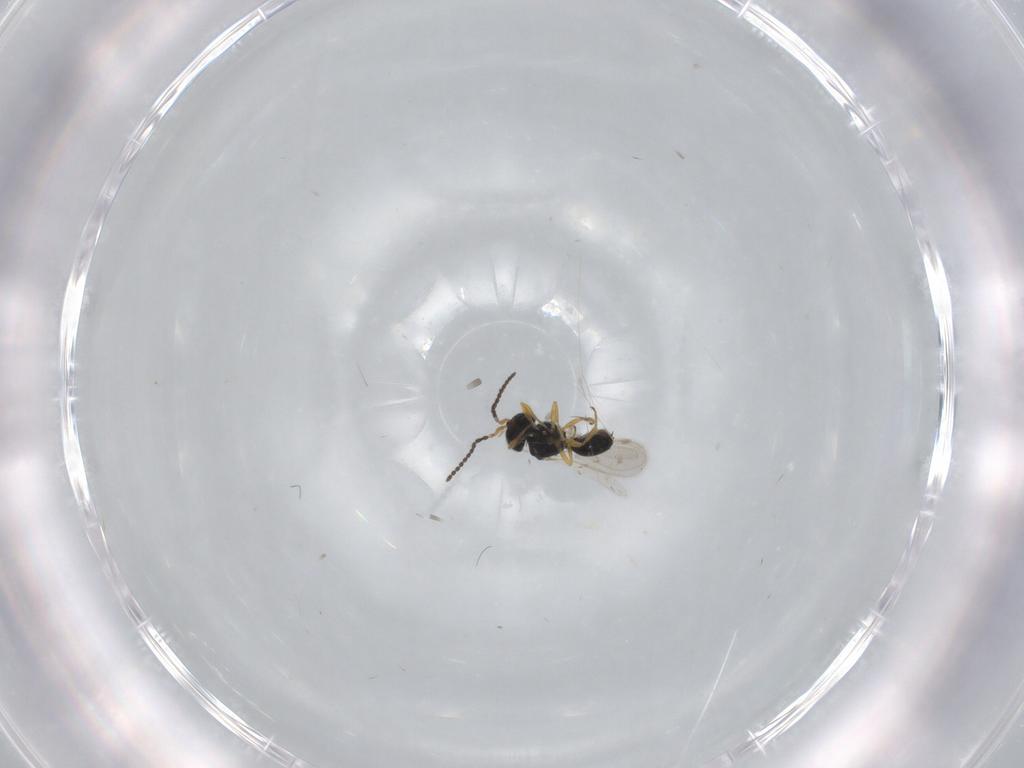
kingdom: Animalia
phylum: Arthropoda
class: Insecta
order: Hymenoptera
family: Scelionidae
